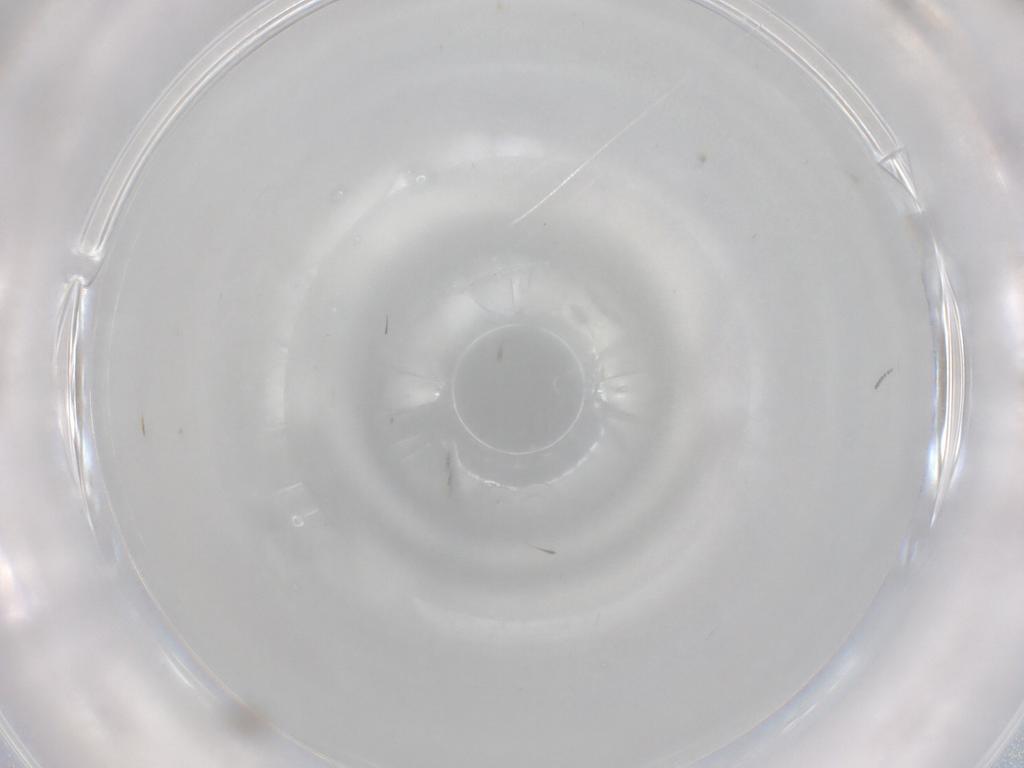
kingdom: Animalia
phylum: Arthropoda
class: Insecta
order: Diptera
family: Cecidomyiidae
